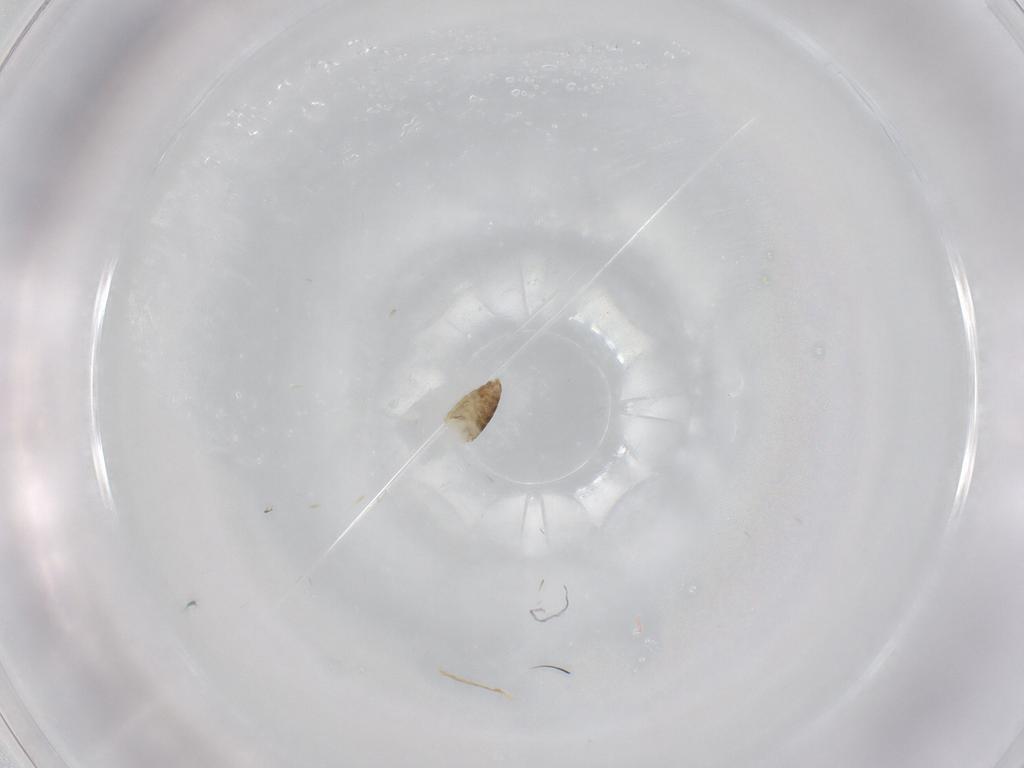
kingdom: Animalia
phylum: Arthropoda
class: Insecta
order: Diptera
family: Chironomidae
